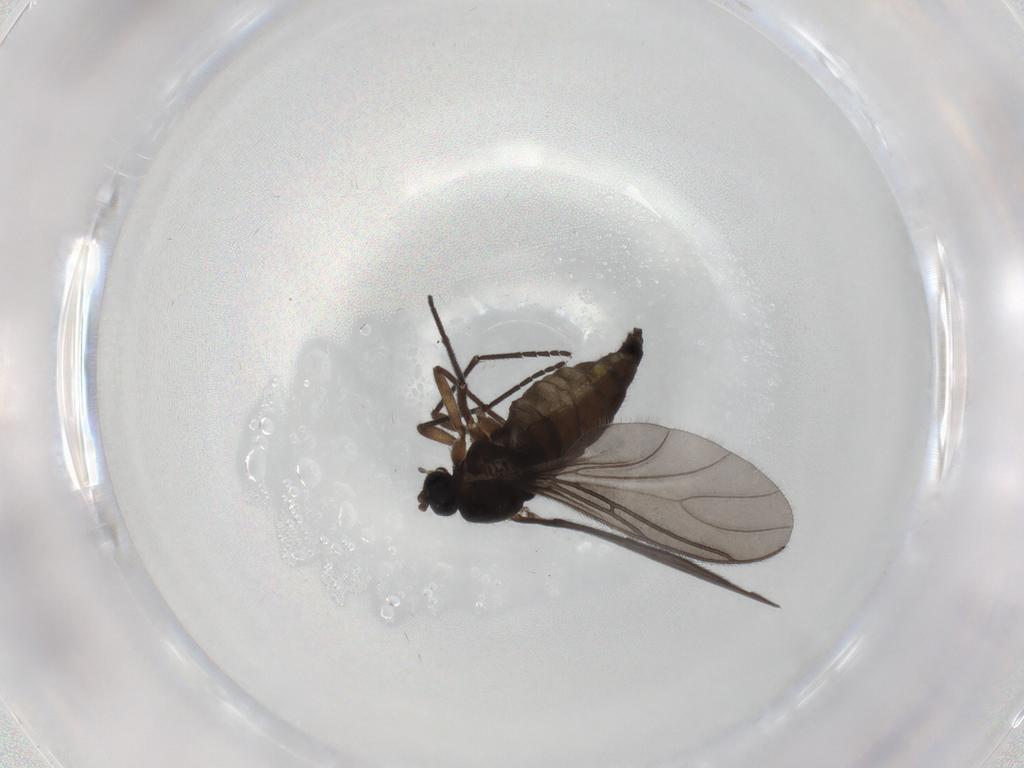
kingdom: Animalia
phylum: Arthropoda
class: Insecta
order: Diptera
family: Sciaridae
